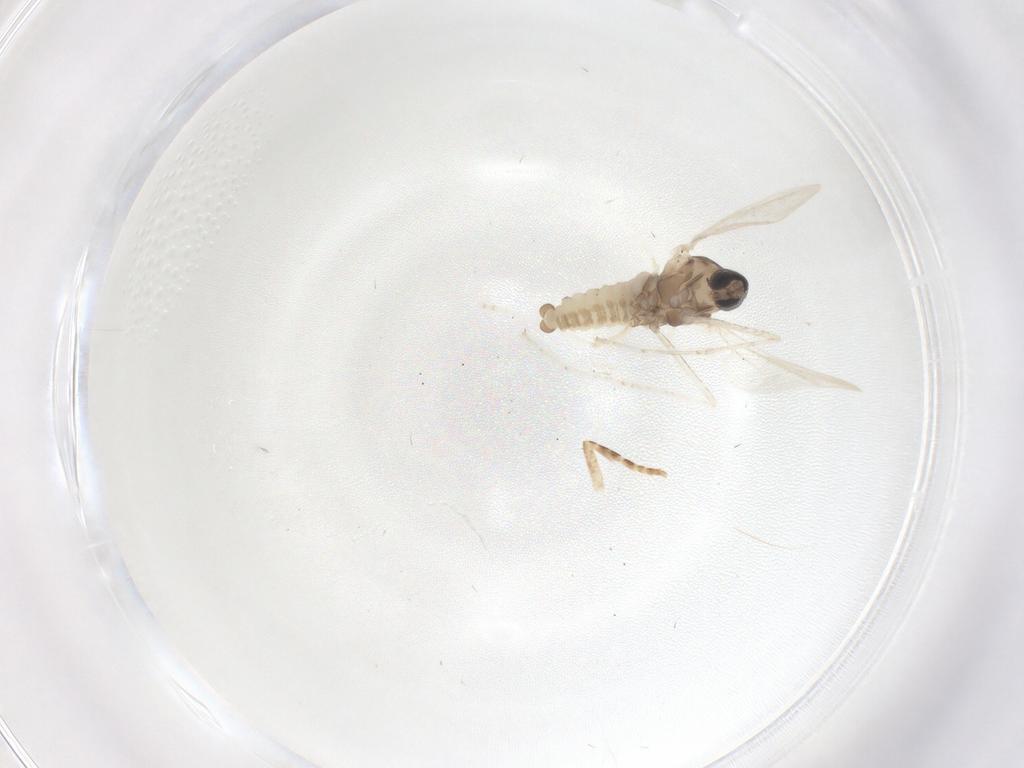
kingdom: Animalia
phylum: Arthropoda
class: Insecta
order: Diptera
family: Cecidomyiidae
